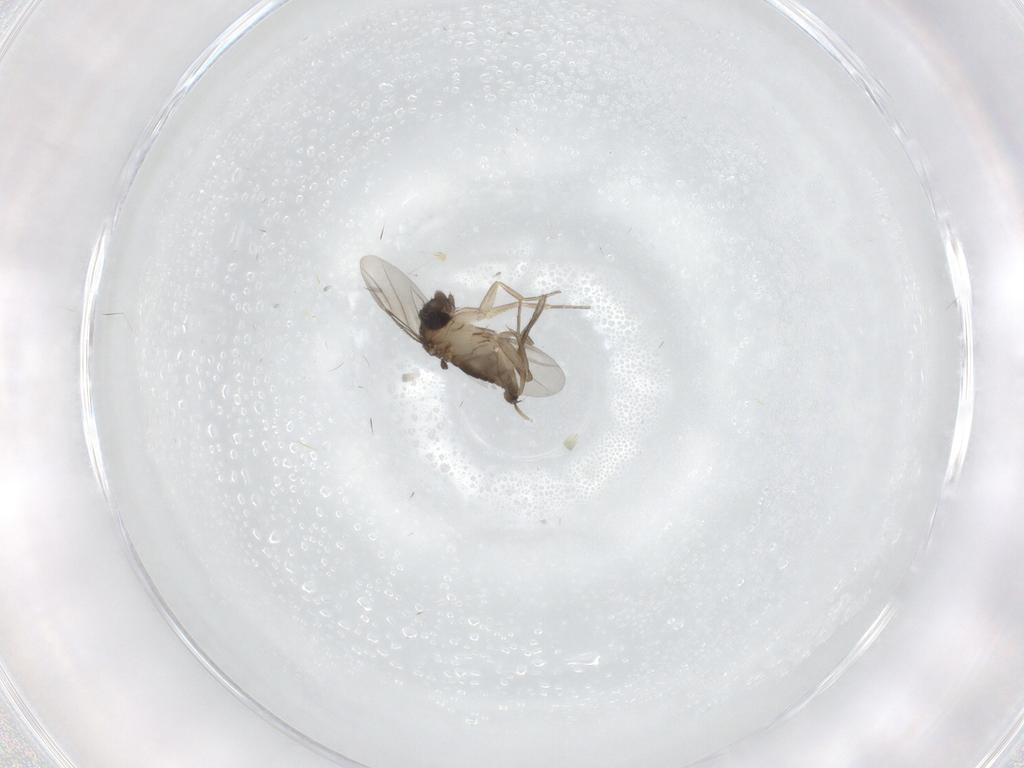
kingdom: Animalia
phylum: Arthropoda
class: Insecta
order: Diptera
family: Phoridae
